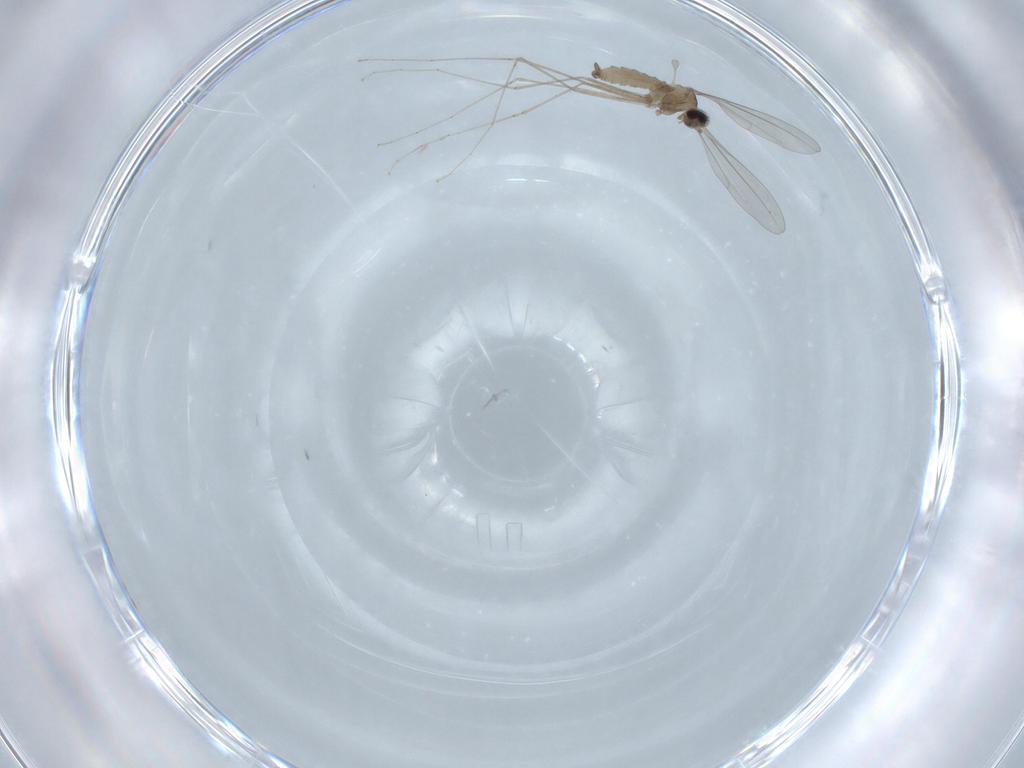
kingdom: Animalia
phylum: Arthropoda
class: Insecta
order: Diptera
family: Cecidomyiidae
